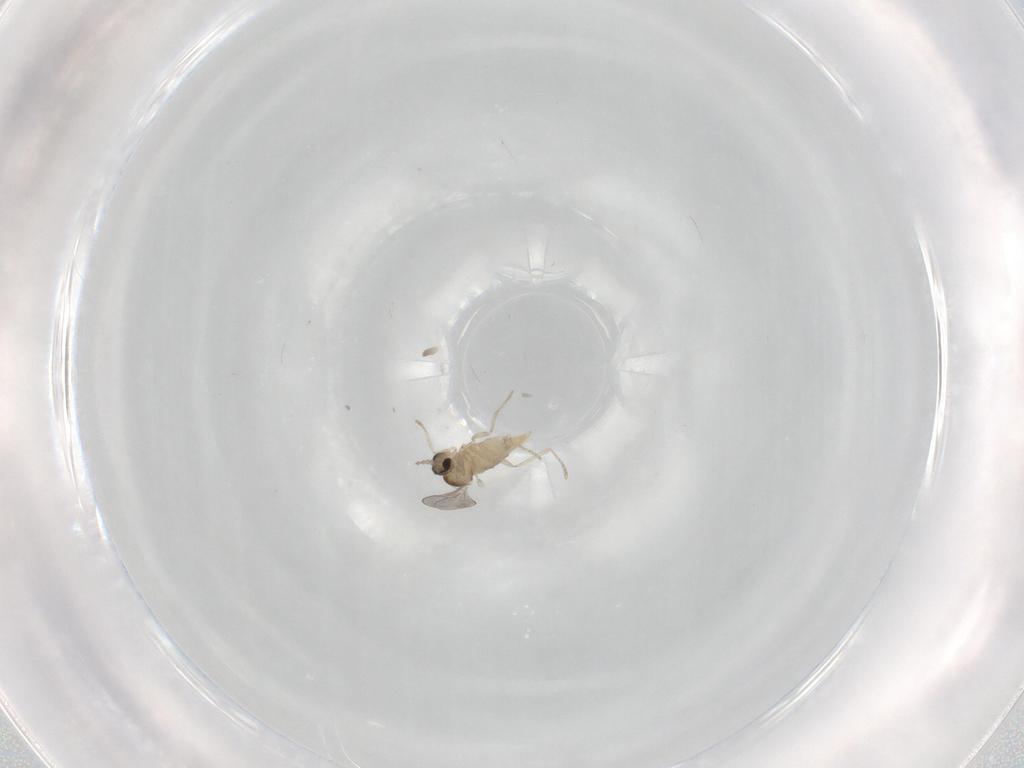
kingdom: Animalia
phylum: Arthropoda
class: Insecta
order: Diptera
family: Cecidomyiidae
